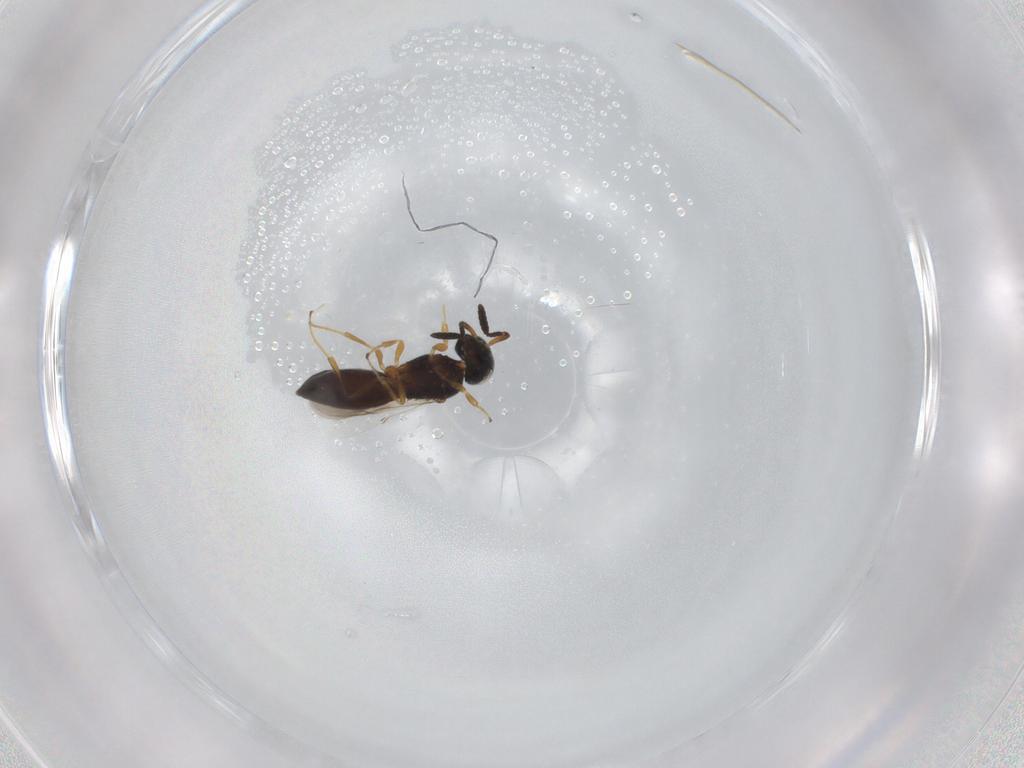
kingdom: Animalia
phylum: Arthropoda
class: Insecta
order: Hymenoptera
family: Scelionidae
